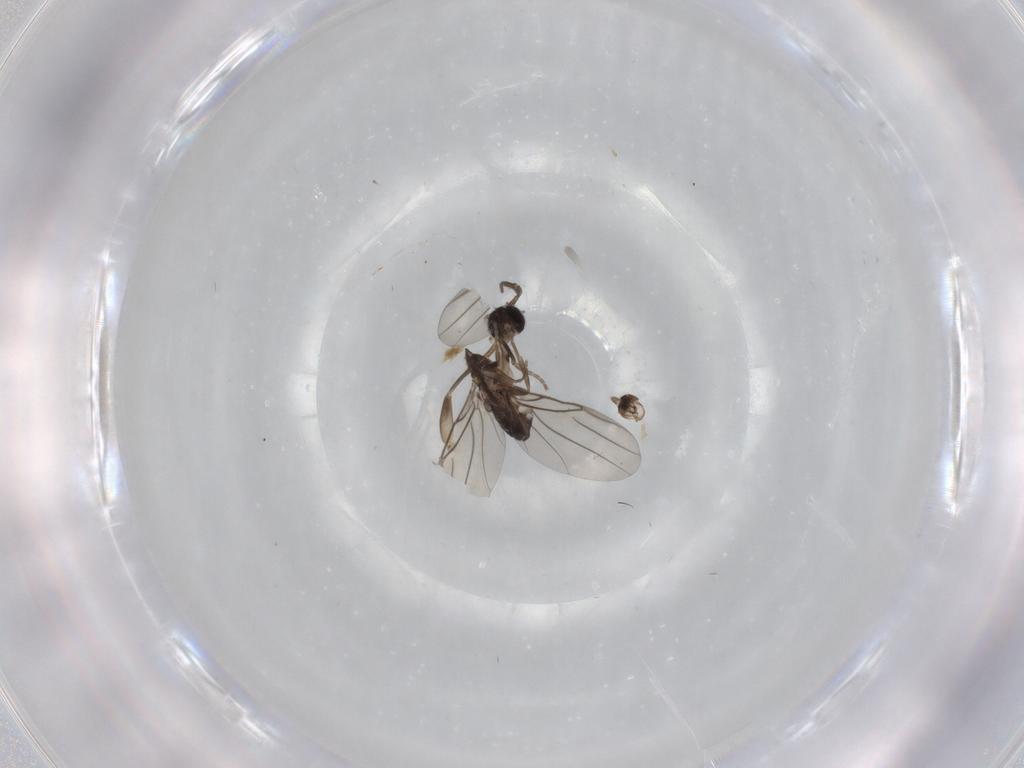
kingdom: Animalia
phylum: Arthropoda
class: Insecta
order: Diptera
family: Phoridae
